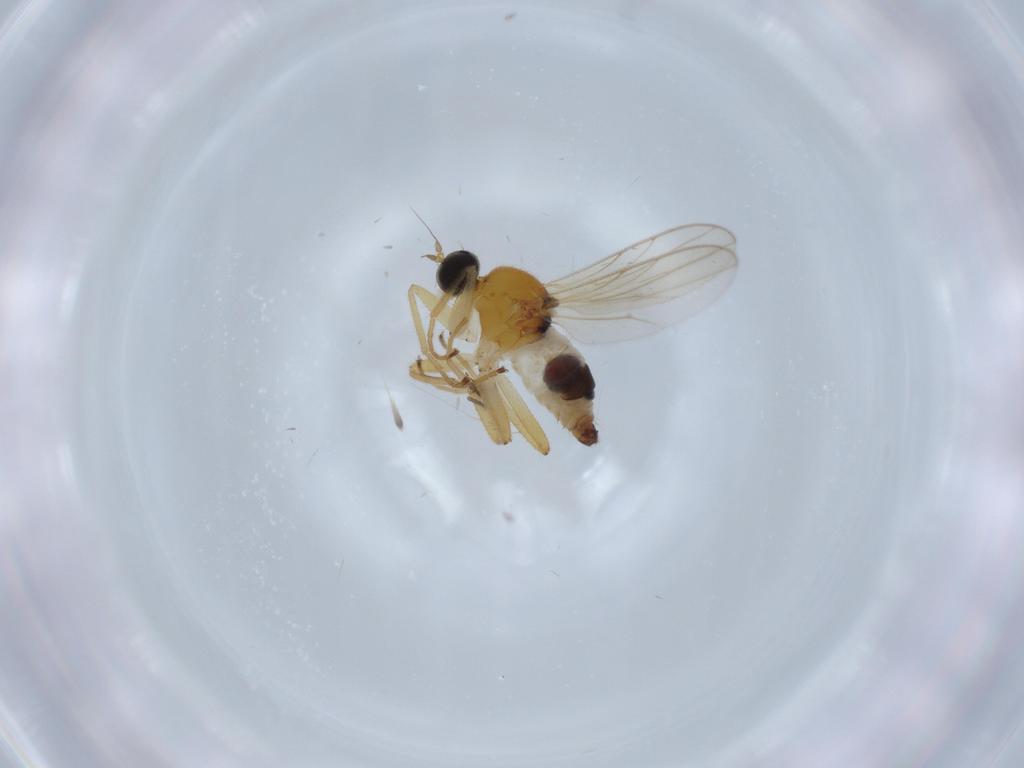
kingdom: Animalia
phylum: Arthropoda
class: Insecta
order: Diptera
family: Hybotidae
